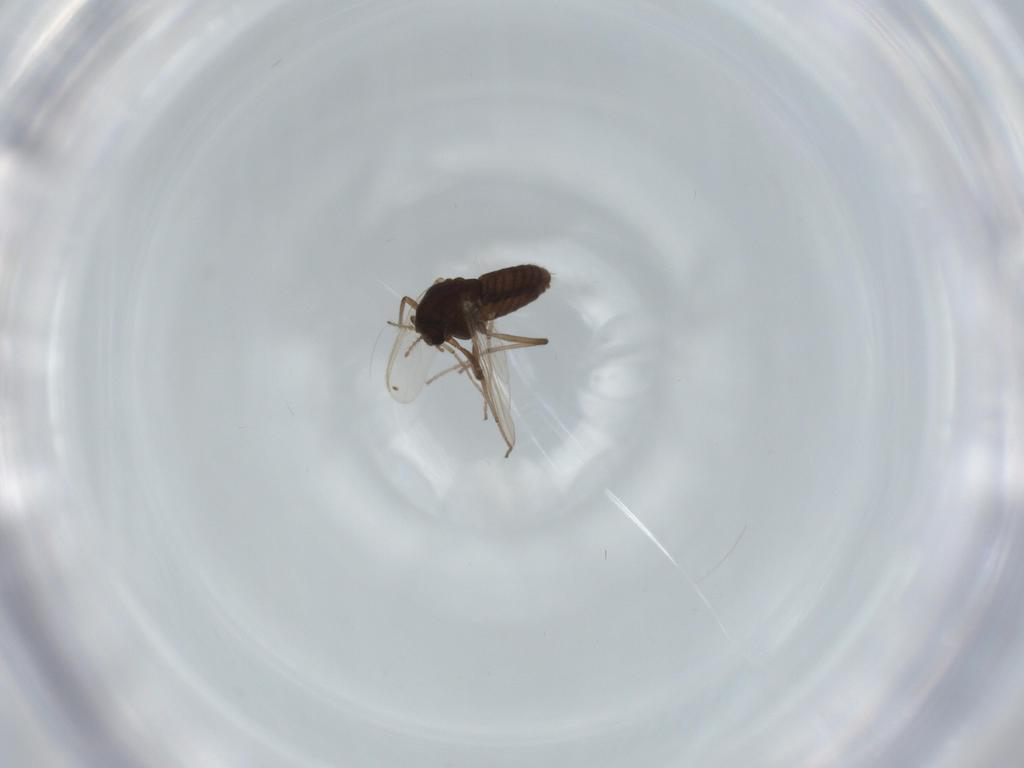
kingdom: Animalia
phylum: Arthropoda
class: Insecta
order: Diptera
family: Chironomidae
